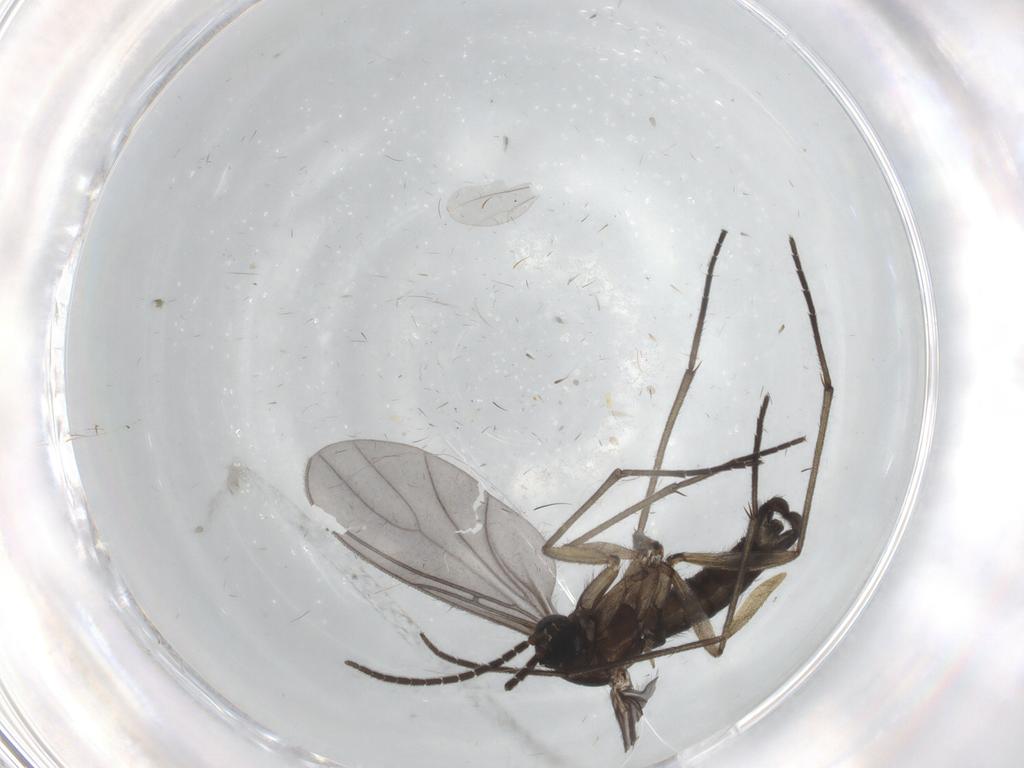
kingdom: Animalia
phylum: Arthropoda
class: Insecta
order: Diptera
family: Sciaridae
